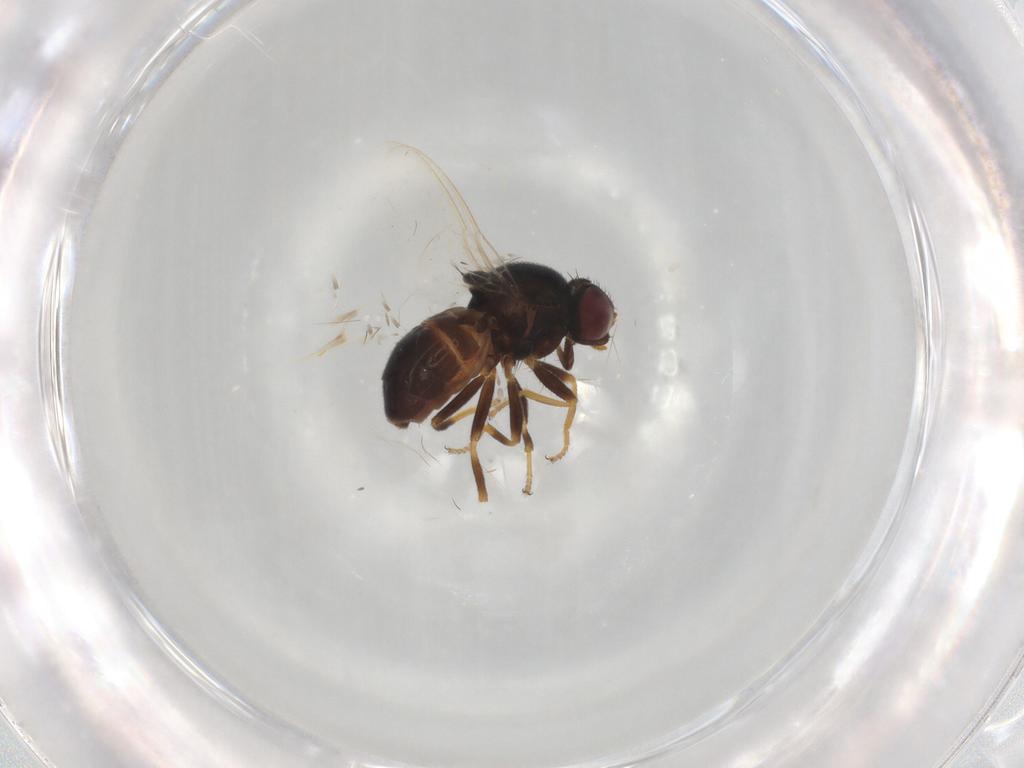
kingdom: Animalia
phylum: Arthropoda
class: Insecta
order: Diptera
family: Chloropidae
